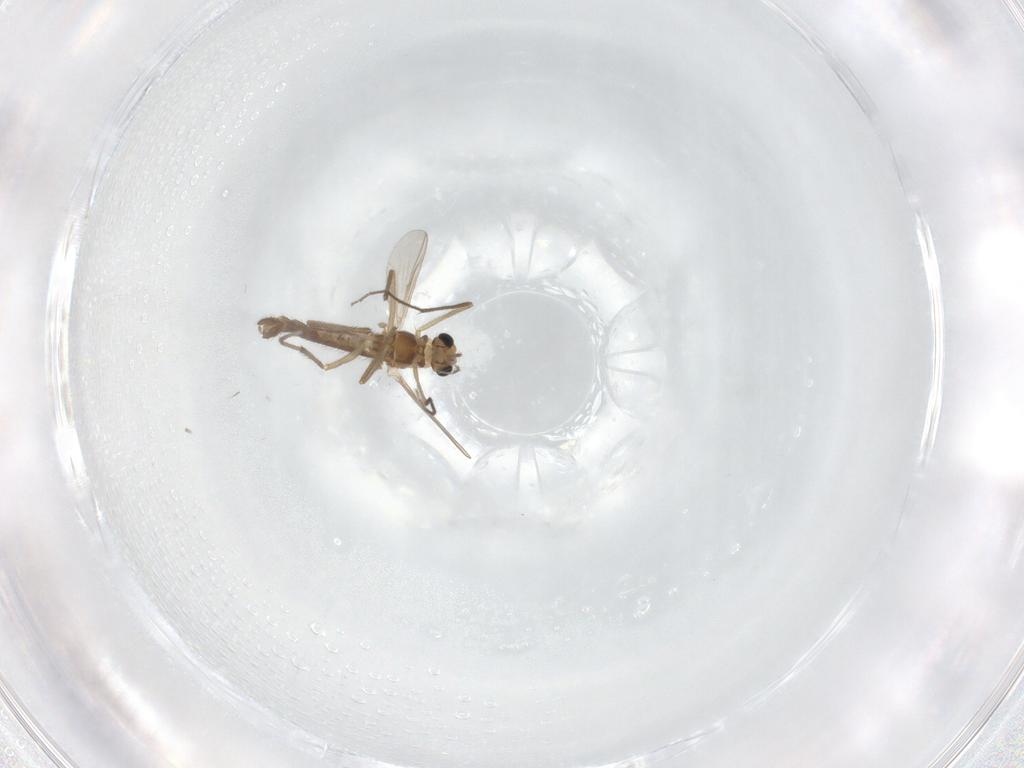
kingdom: Animalia
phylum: Arthropoda
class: Insecta
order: Diptera
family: Chironomidae
